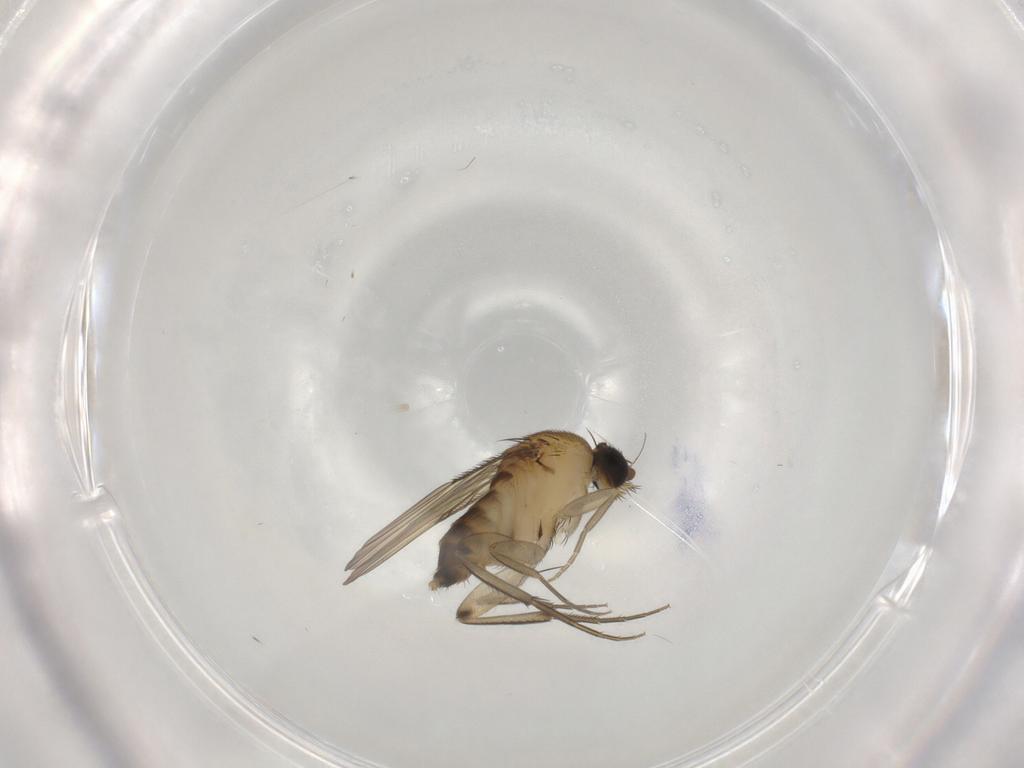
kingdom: Animalia
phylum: Arthropoda
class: Insecta
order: Diptera
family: Phoridae
